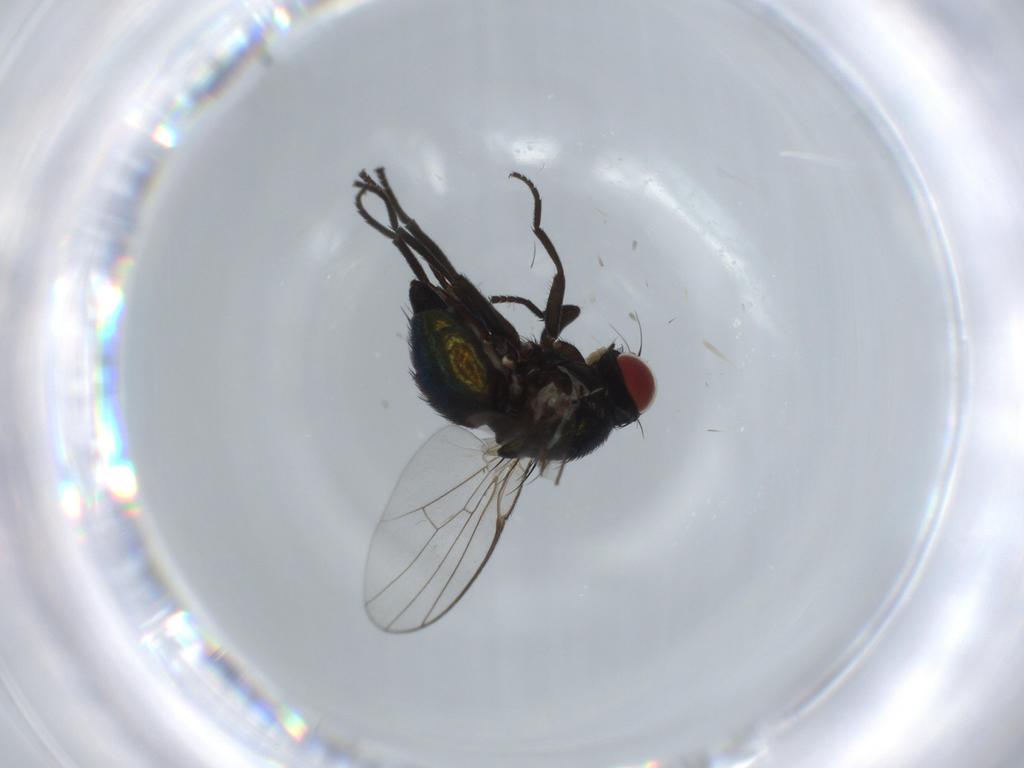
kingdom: Animalia
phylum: Arthropoda
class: Insecta
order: Diptera
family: Agromyzidae
